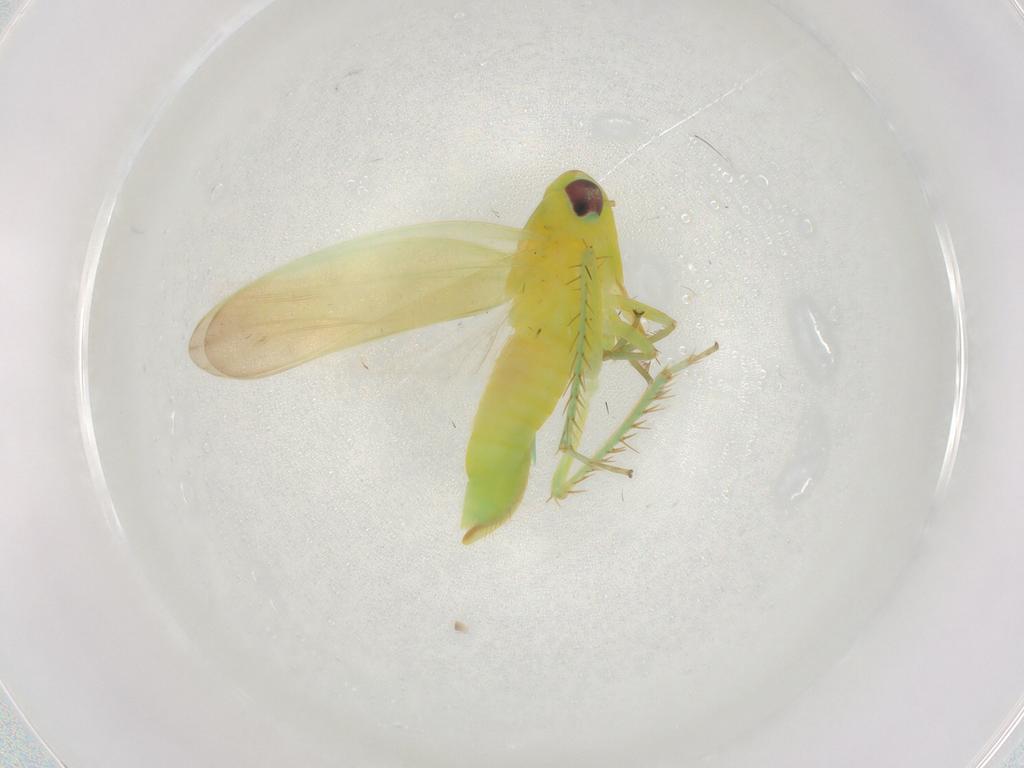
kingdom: Animalia
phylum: Arthropoda
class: Insecta
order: Hemiptera
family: Cicadellidae
